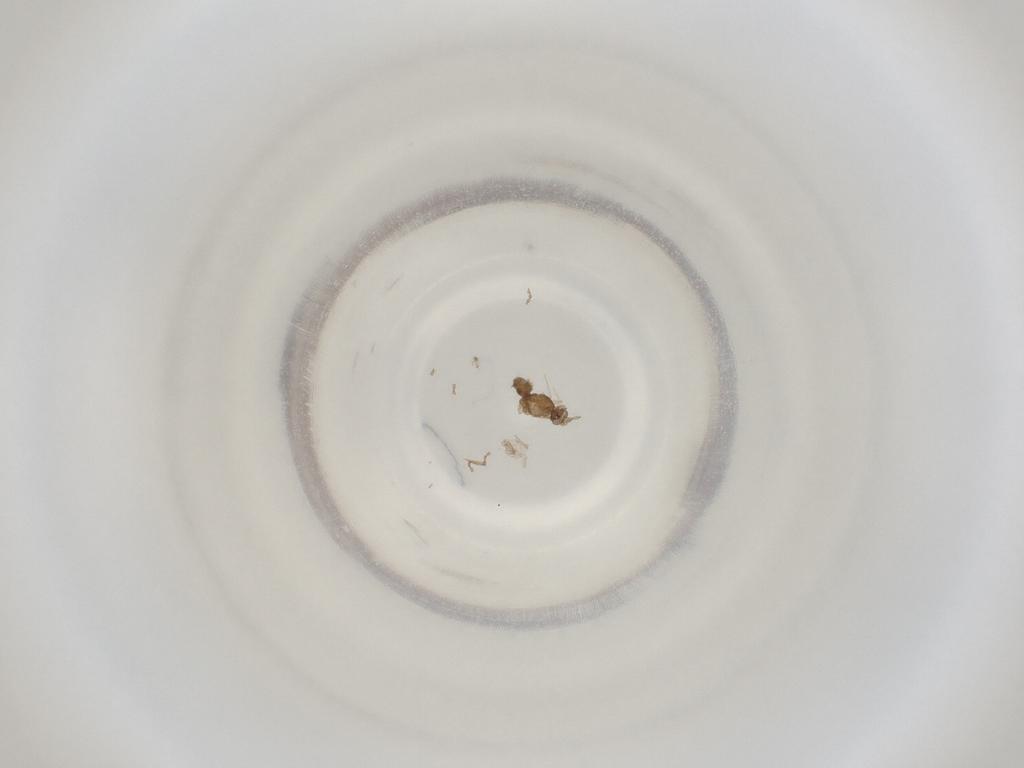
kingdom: Animalia
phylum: Arthropoda
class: Insecta
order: Diptera
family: Cecidomyiidae
